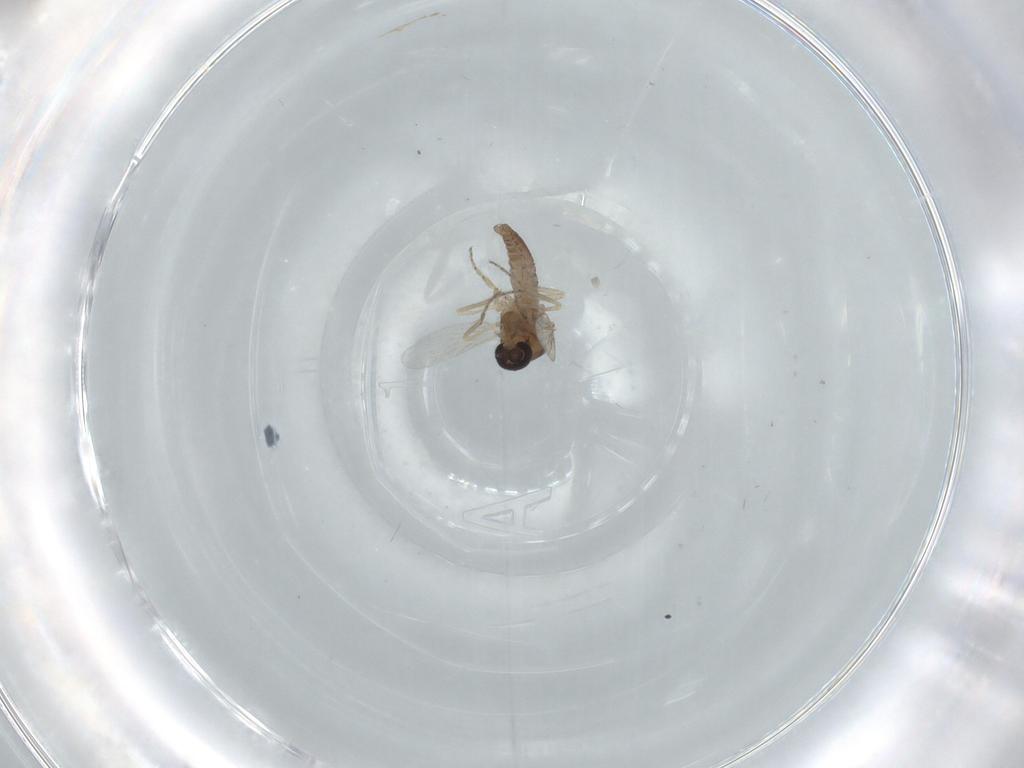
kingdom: Animalia
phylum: Arthropoda
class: Insecta
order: Diptera
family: Ceratopogonidae
